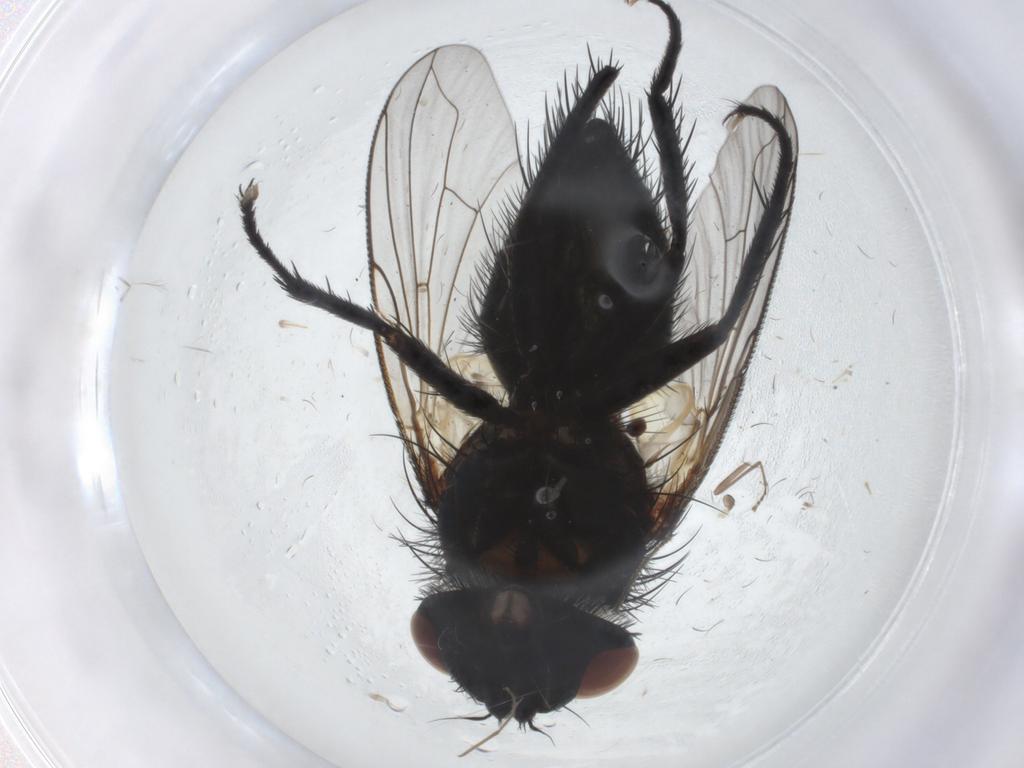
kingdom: Animalia
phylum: Arthropoda
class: Insecta
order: Diptera
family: Tachinidae
